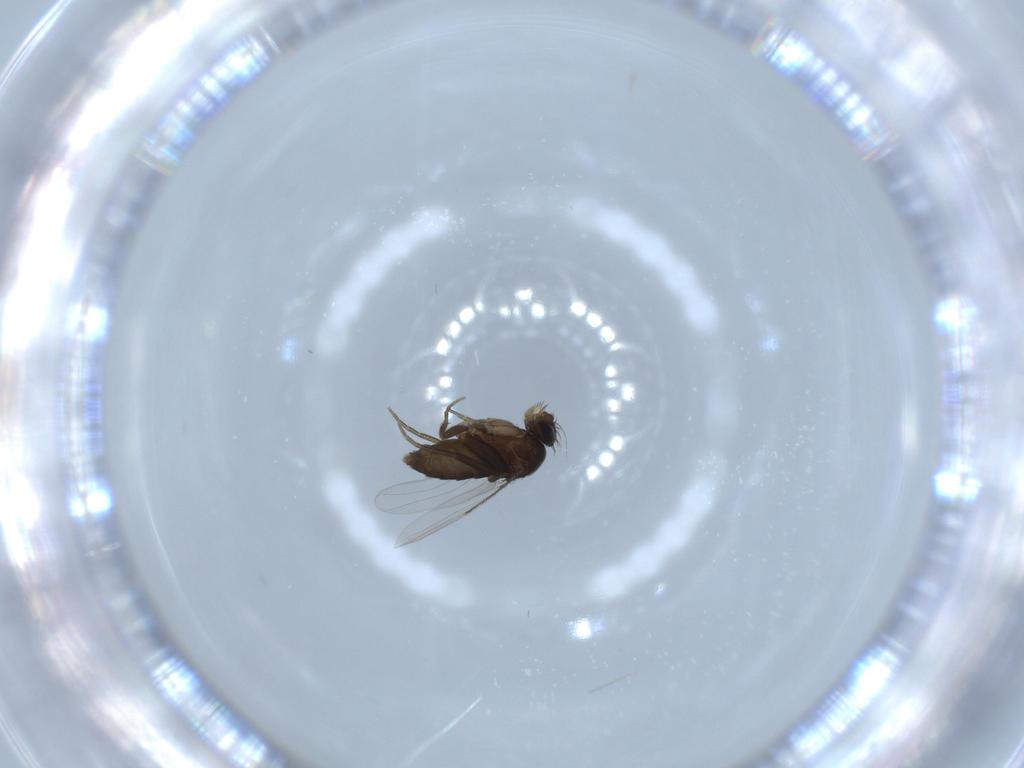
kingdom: Animalia
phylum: Arthropoda
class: Insecta
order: Diptera
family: Phoridae
